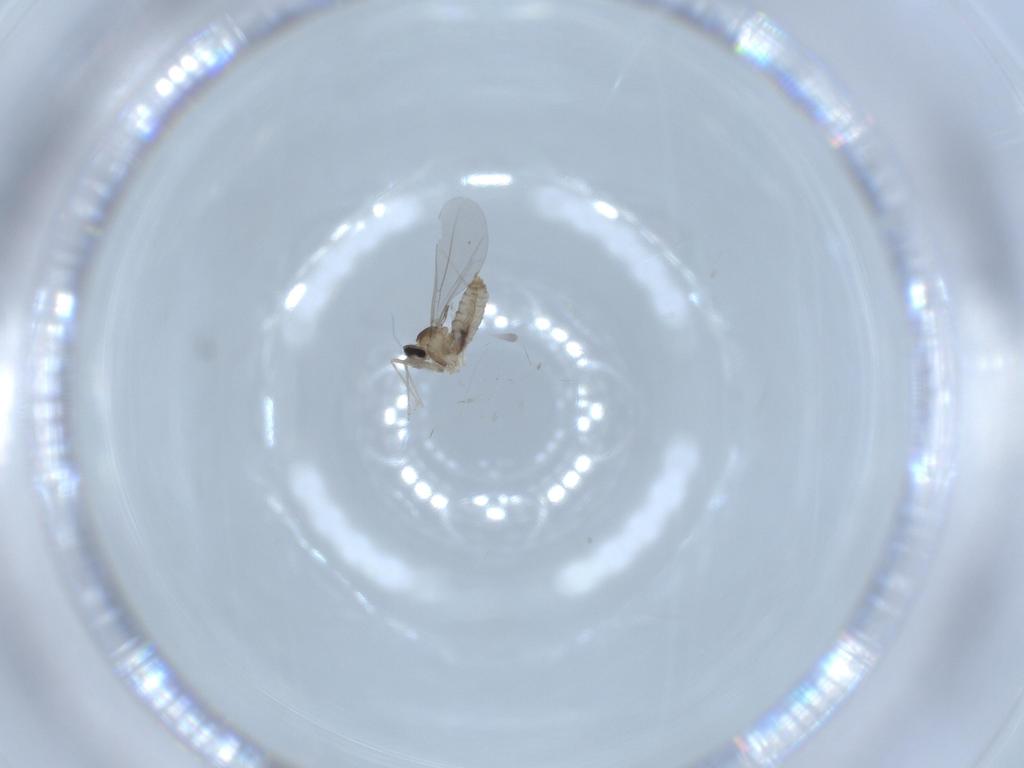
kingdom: Animalia
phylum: Arthropoda
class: Insecta
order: Diptera
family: Cecidomyiidae
